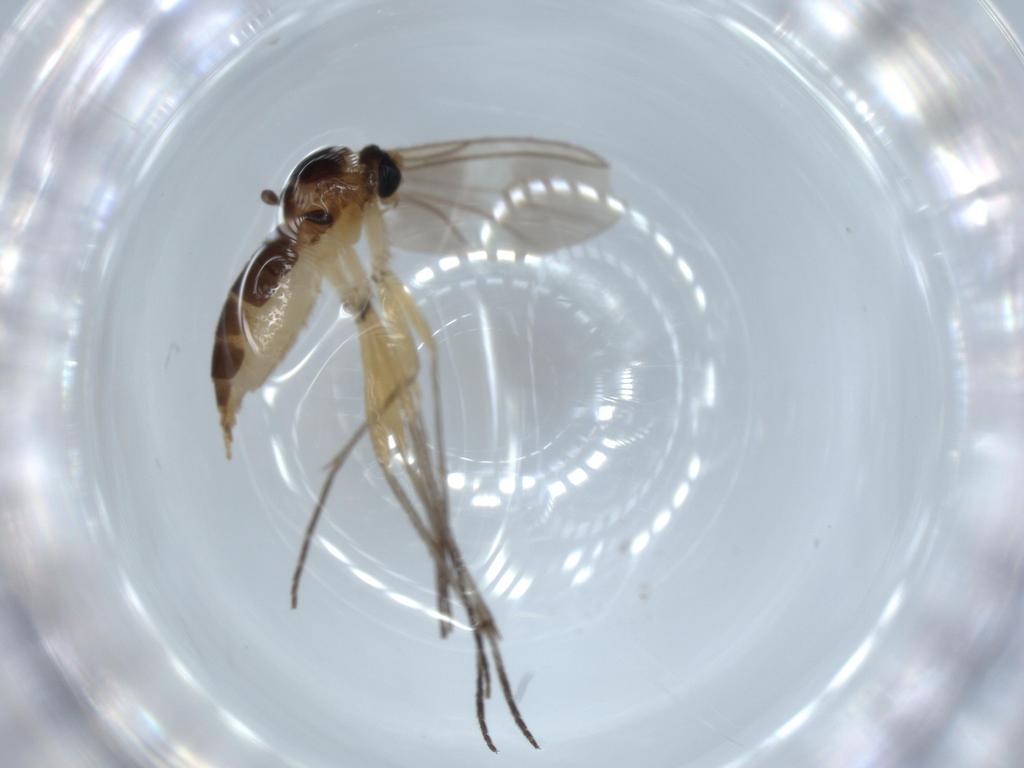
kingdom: Animalia
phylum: Arthropoda
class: Insecta
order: Diptera
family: Sciaridae
